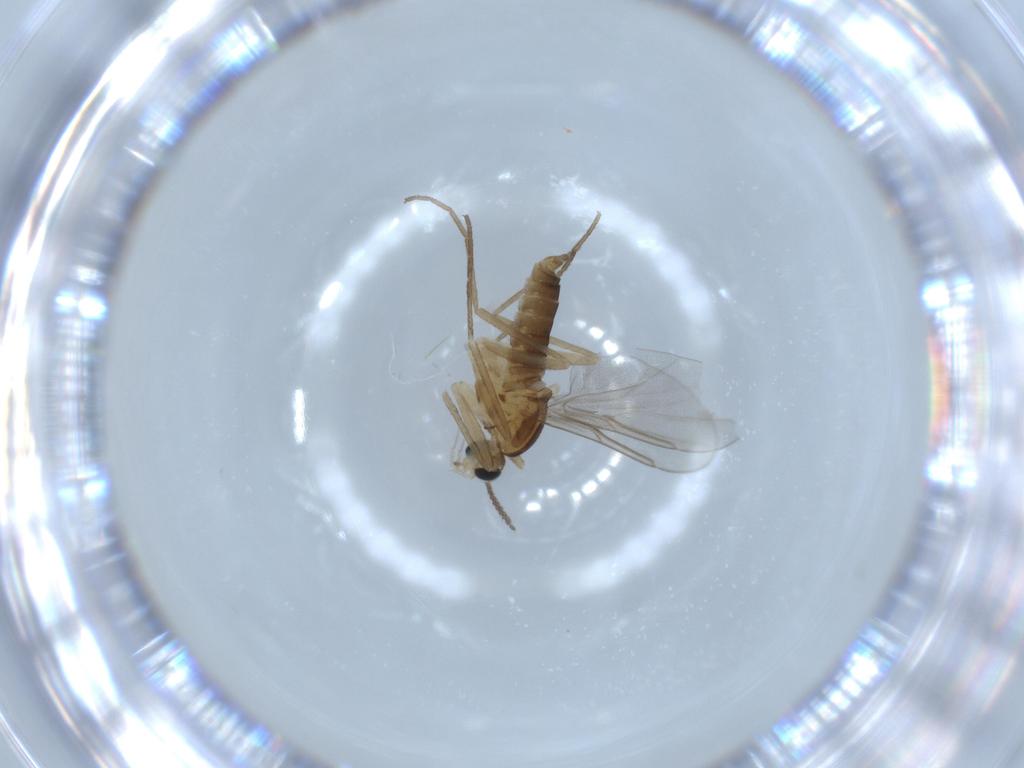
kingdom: Animalia
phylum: Arthropoda
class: Insecta
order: Diptera
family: Cecidomyiidae
